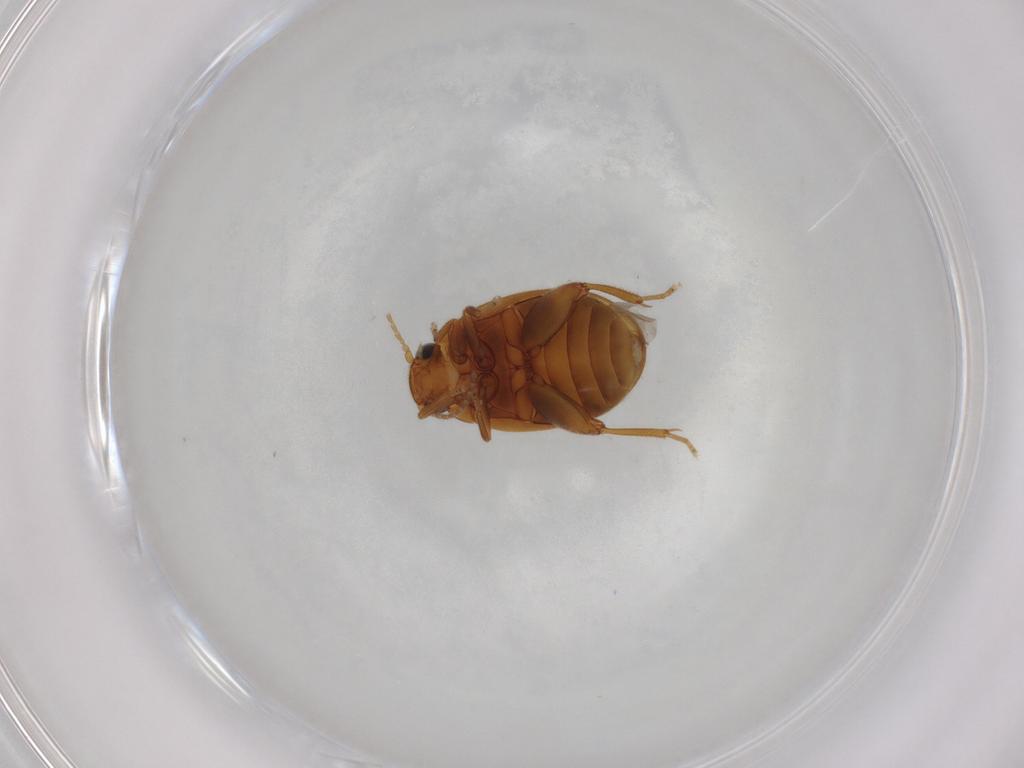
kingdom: Animalia
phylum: Arthropoda
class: Insecta
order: Coleoptera
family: Scirtidae
